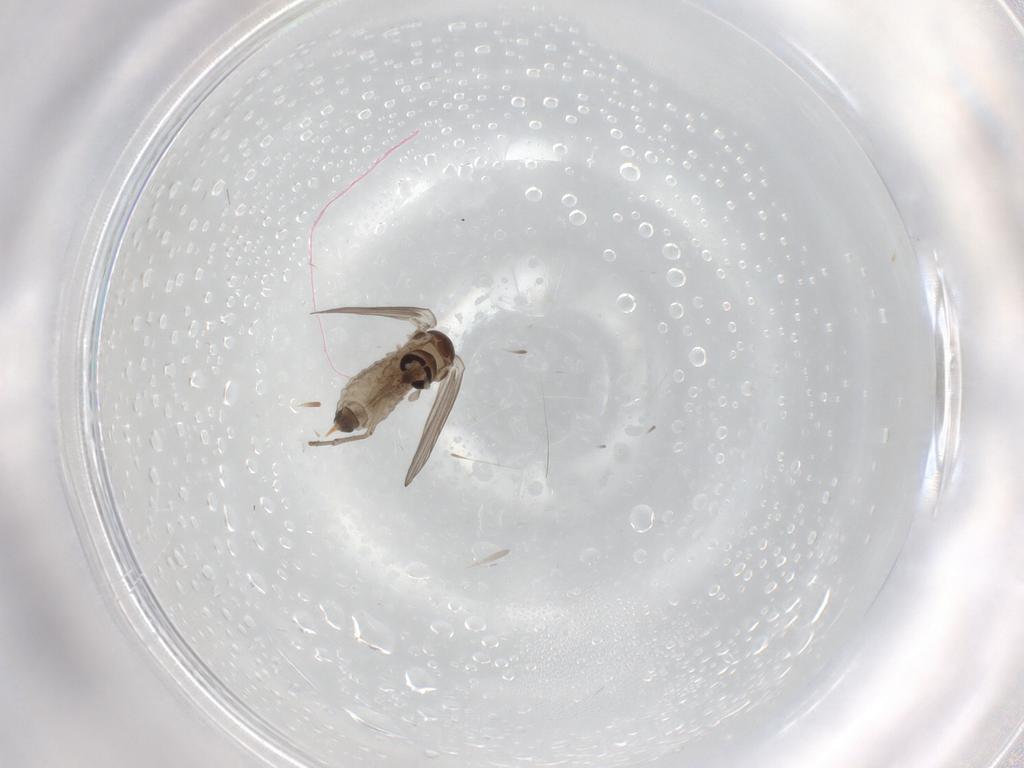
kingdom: Animalia
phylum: Arthropoda
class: Insecta
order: Diptera
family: Psychodidae
